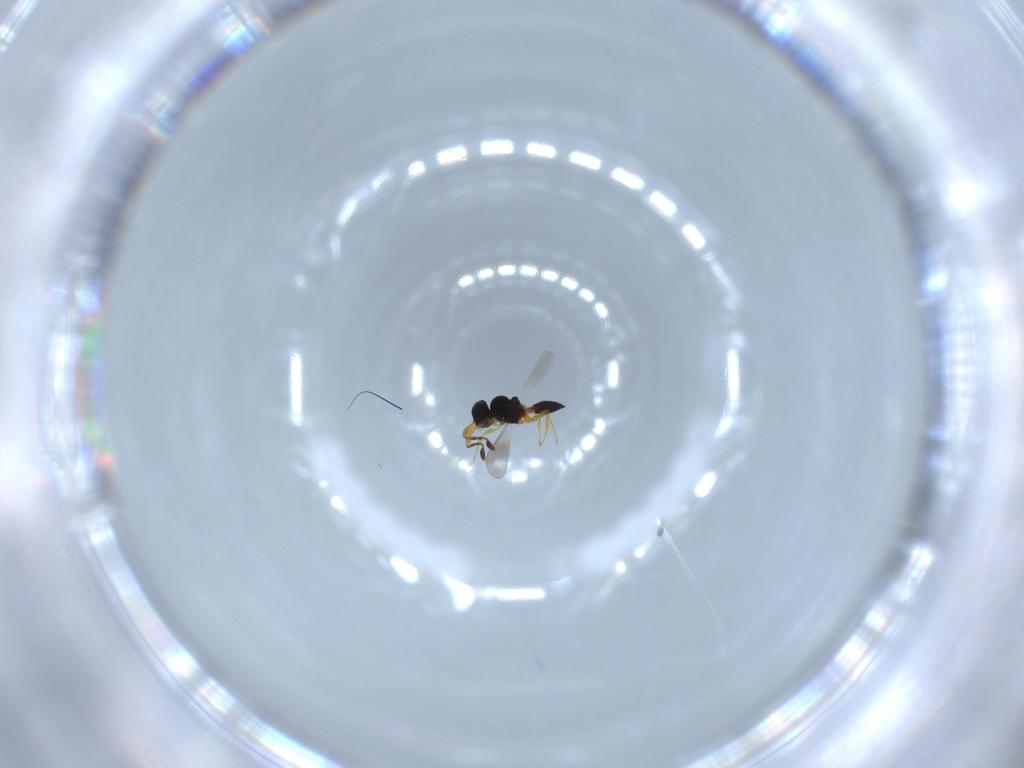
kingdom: Animalia
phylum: Arthropoda
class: Insecta
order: Hymenoptera
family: Platygastridae
